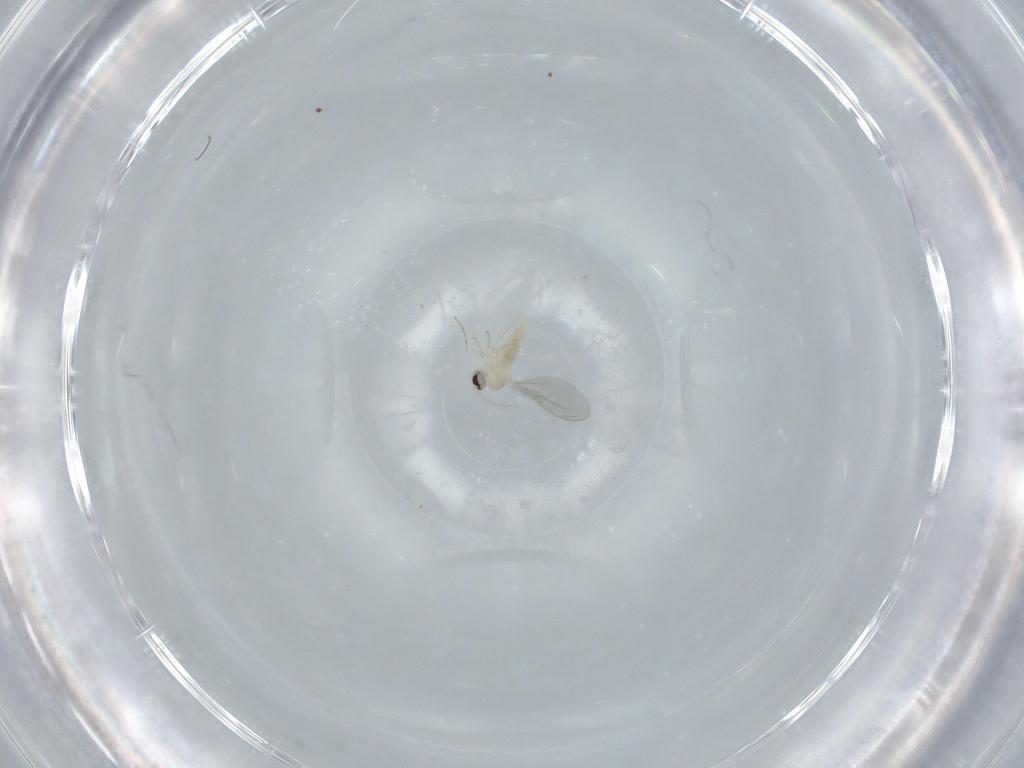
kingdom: Animalia
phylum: Arthropoda
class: Insecta
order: Diptera
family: Cecidomyiidae
